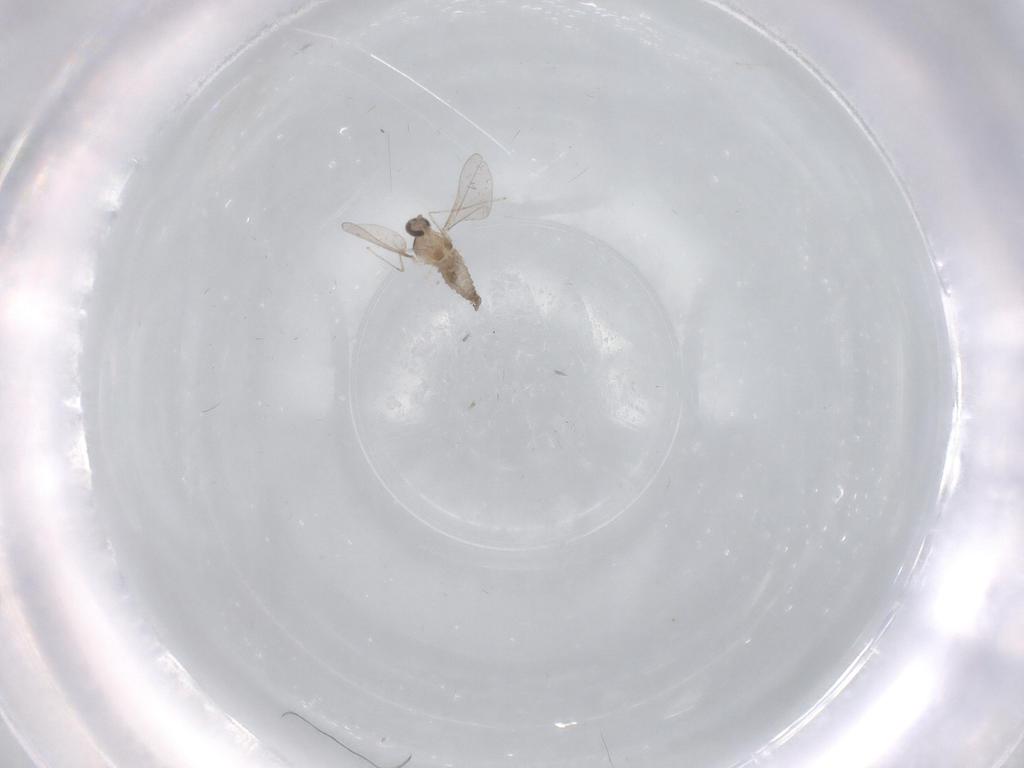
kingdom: Animalia
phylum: Arthropoda
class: Insecta
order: Diptera
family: Cecidomyiidae
